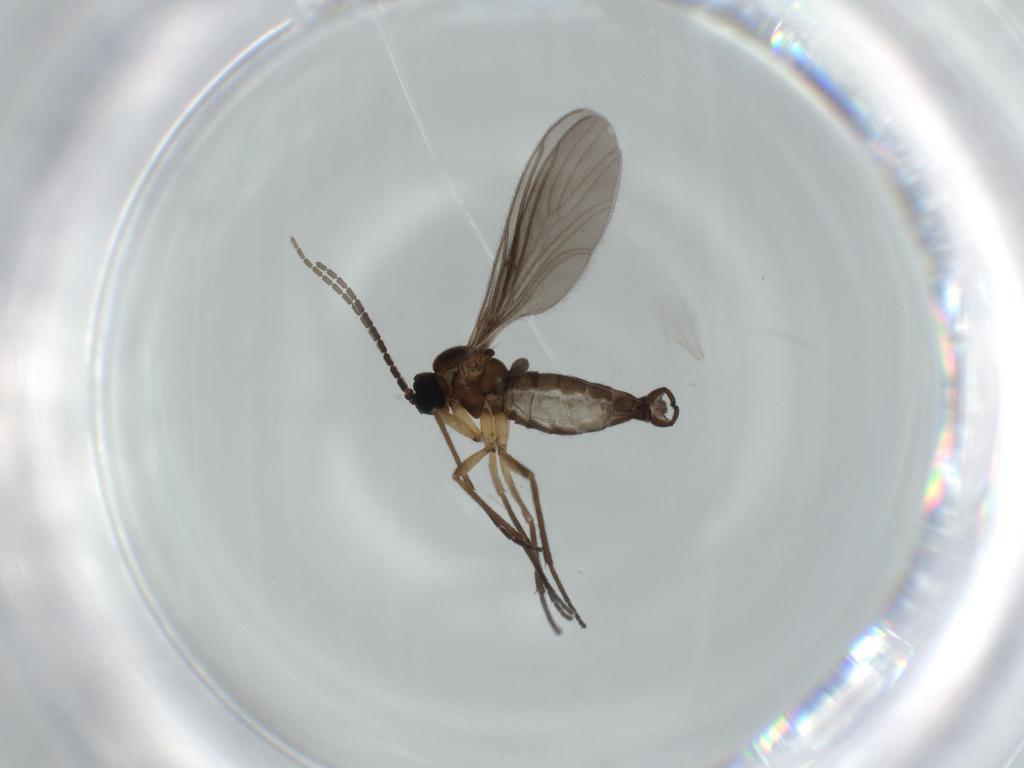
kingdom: Animalia
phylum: Arthropoda
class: Insecta
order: Diptera
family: Sciaridae
